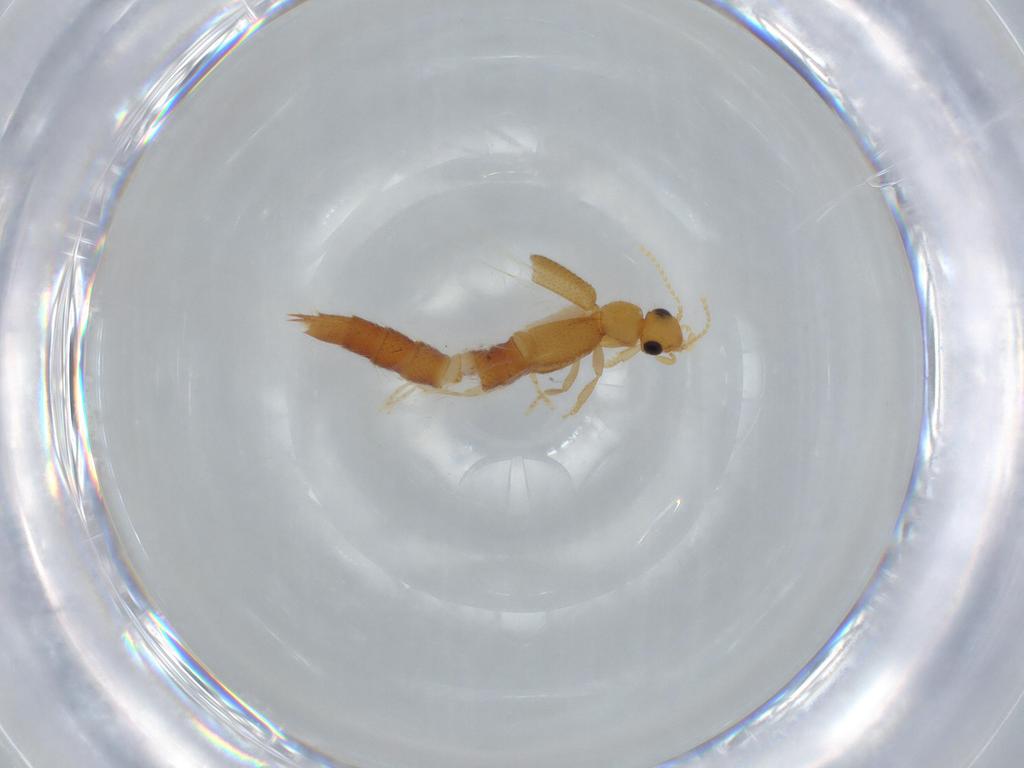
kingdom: Animalia
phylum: Arthropoda
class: Insecta
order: Coleoptera
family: Staphylinidae
